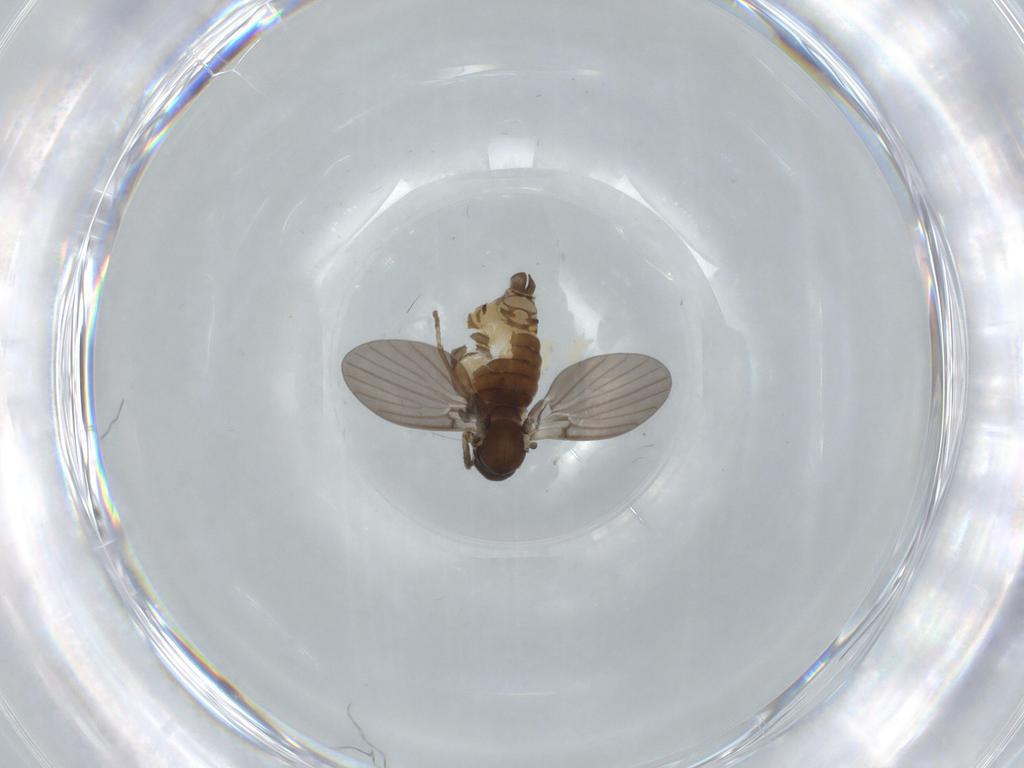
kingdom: Animalia
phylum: Arthropoda
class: Insecta
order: Diptera
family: Psychodidae
